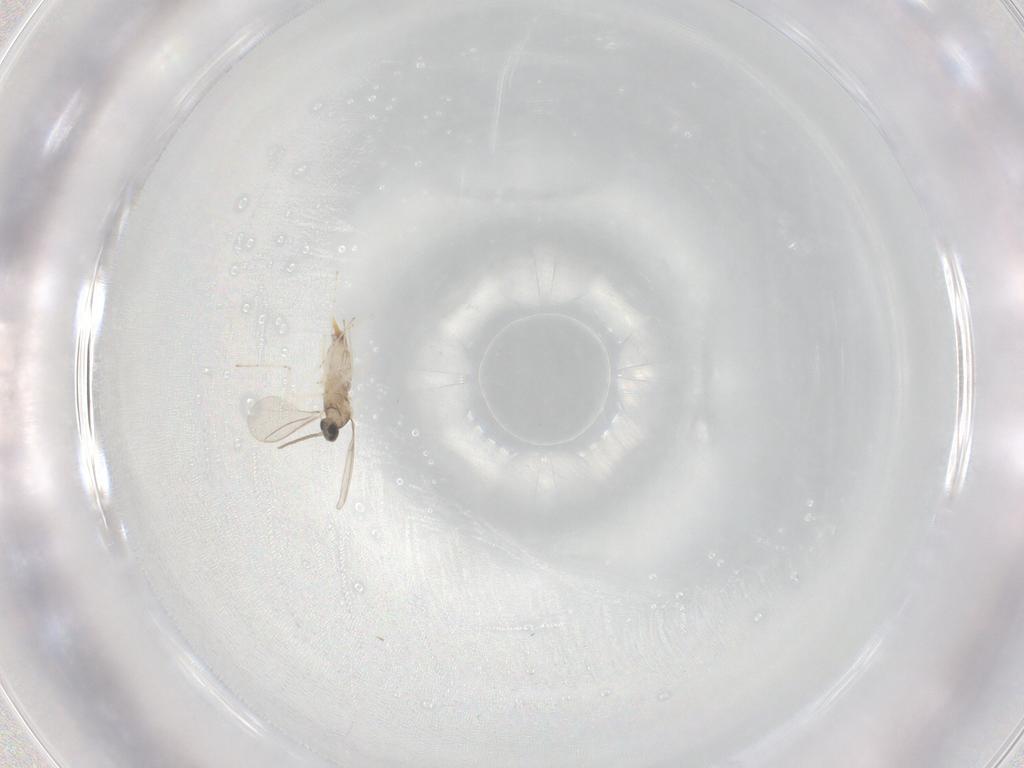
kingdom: Animalia
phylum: Arthropoda
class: Insecta
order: Diptera
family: Cecidomyiidae
